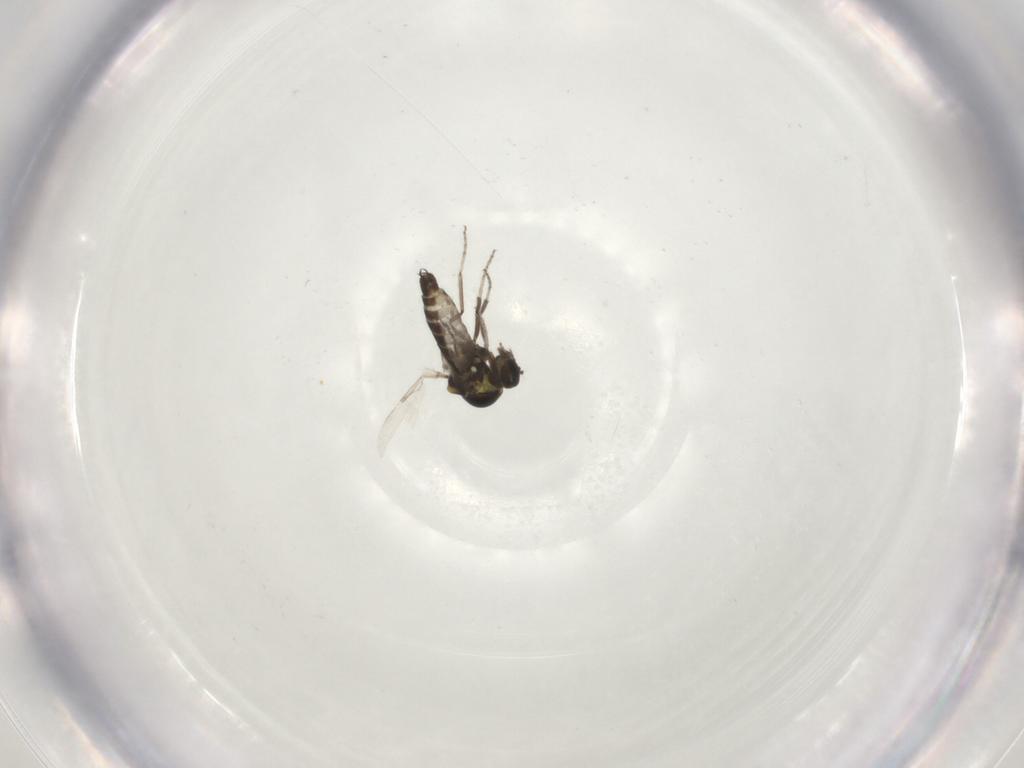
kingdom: Animalia
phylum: Arthropoda
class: Insecta
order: Diptera
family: Ceratopogonidae
